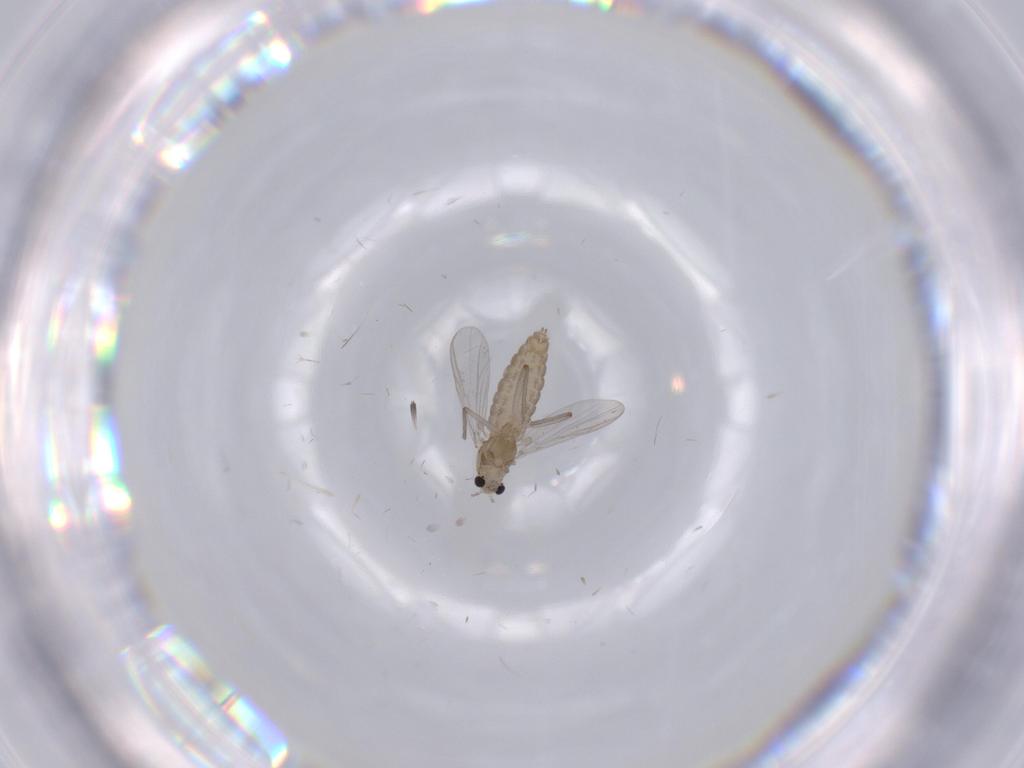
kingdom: Animalia
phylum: Arthropoda
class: Insecta
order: Diptera
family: Chironomidae
